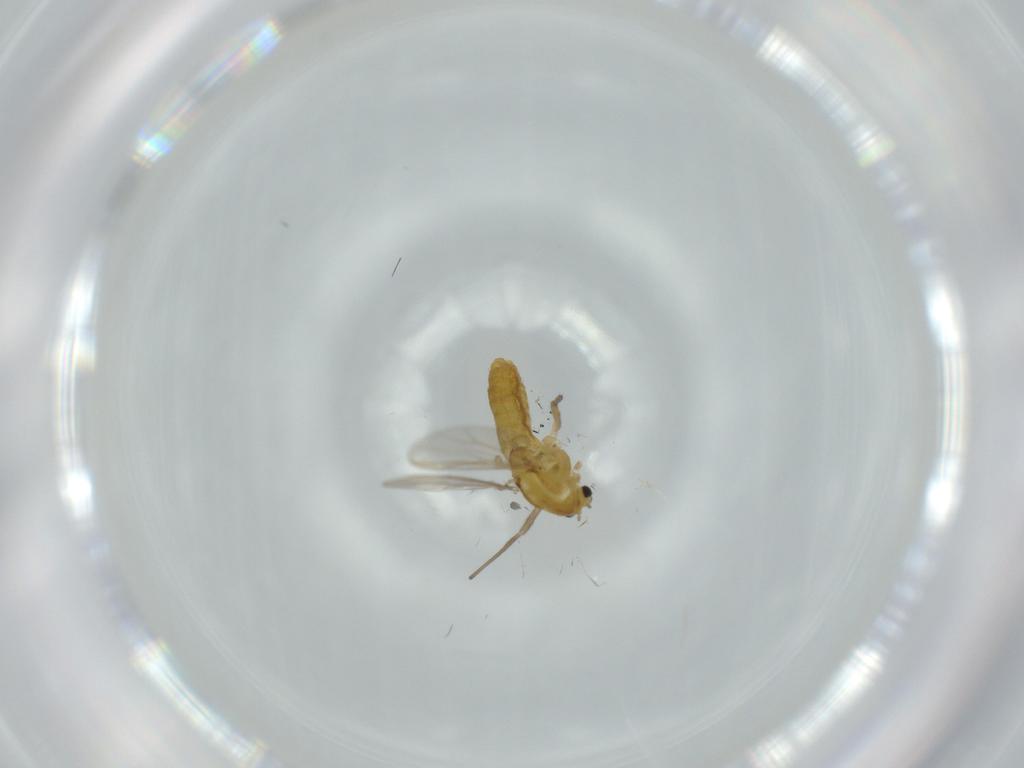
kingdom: Animalia
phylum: Arthropoda
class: Insecta
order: Diptera
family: Chironomidae
